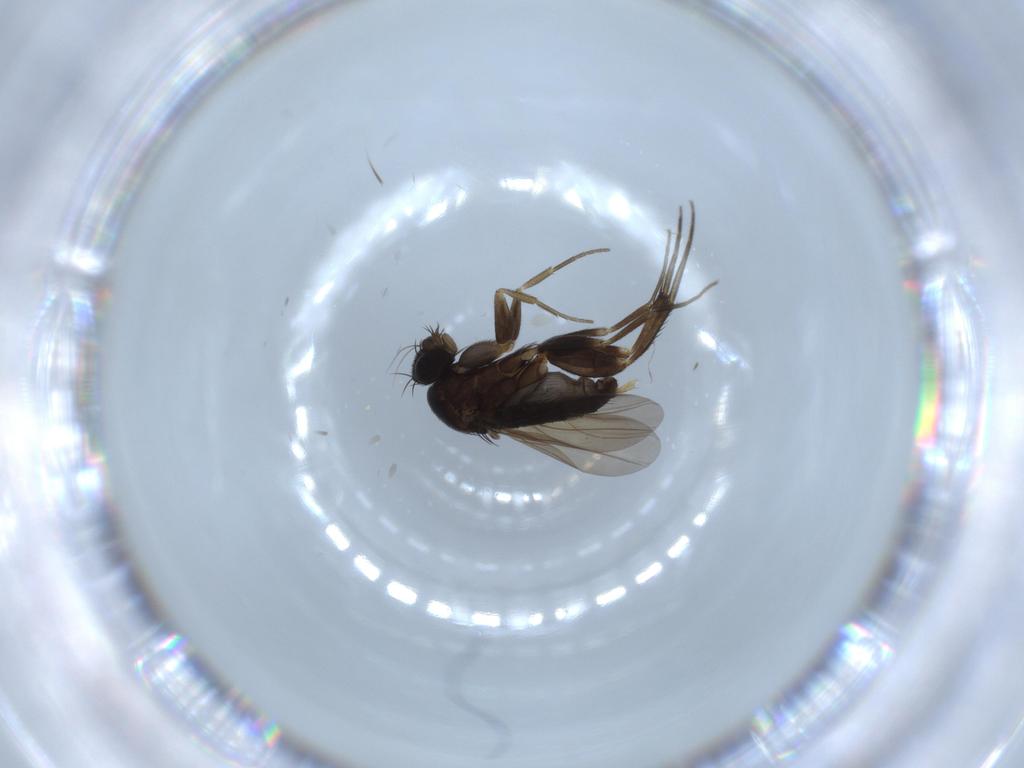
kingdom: Animalia
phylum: Arthropoda
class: Insecta
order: Diptera
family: Phoridae
